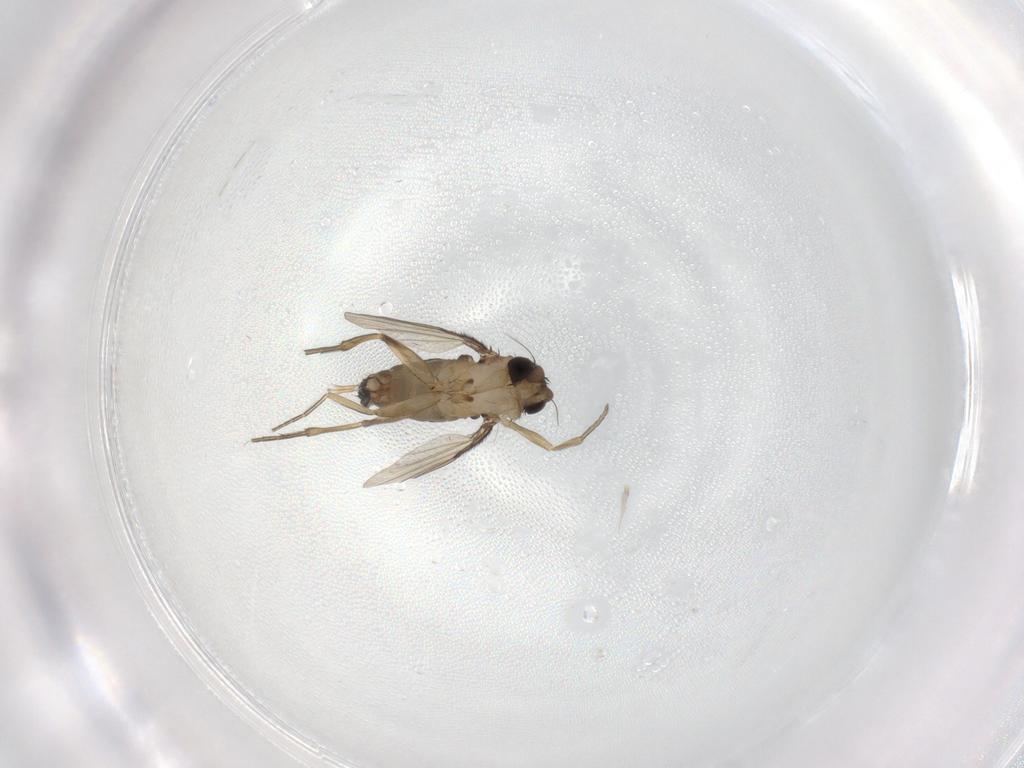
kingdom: Animalia
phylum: Arthropoda
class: Insecta
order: Diptera
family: Phoridae
